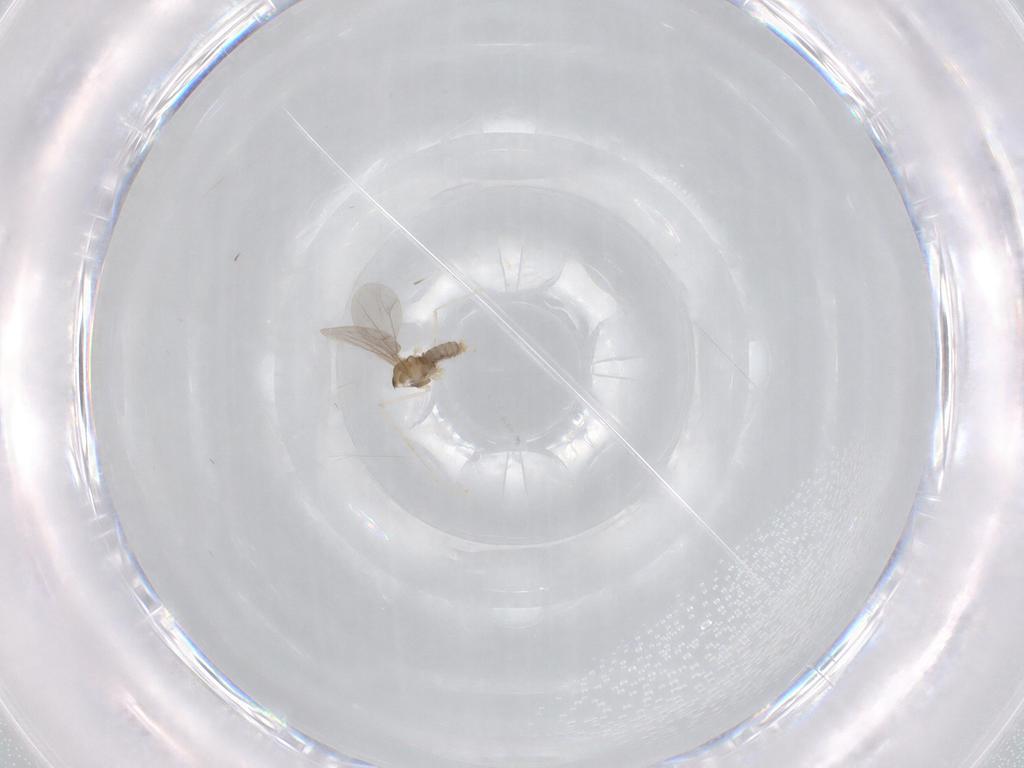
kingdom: Animalia
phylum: Arthropoda
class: Insecta
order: Diptera
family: Cecidomyiidae
